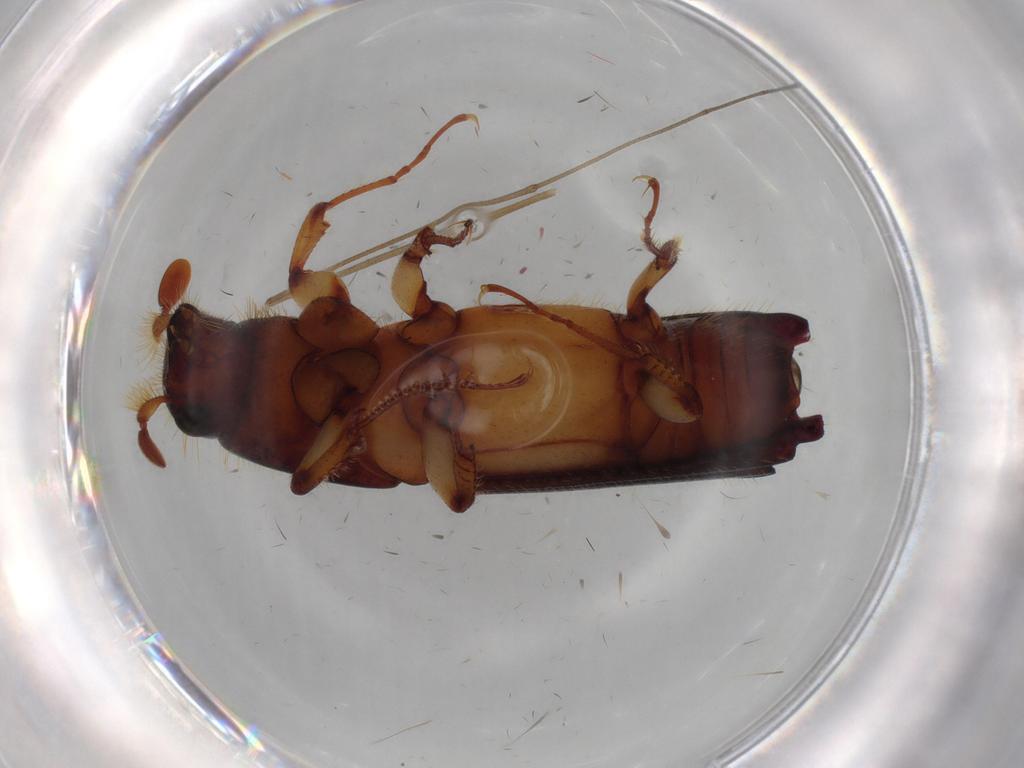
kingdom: Animalia
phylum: Arthropoda
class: Insecta
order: Coleoptera
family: Curculionidae
